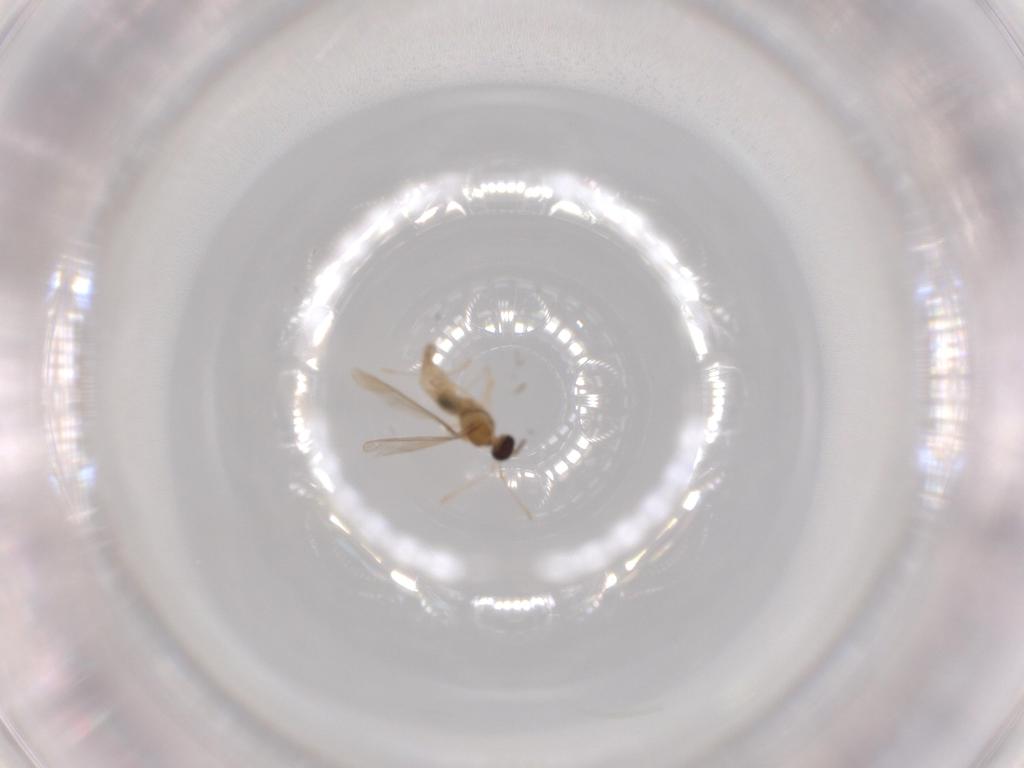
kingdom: Animalia
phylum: Arthropoda
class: Insecta
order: Diptera
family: Cecidomyiidae
